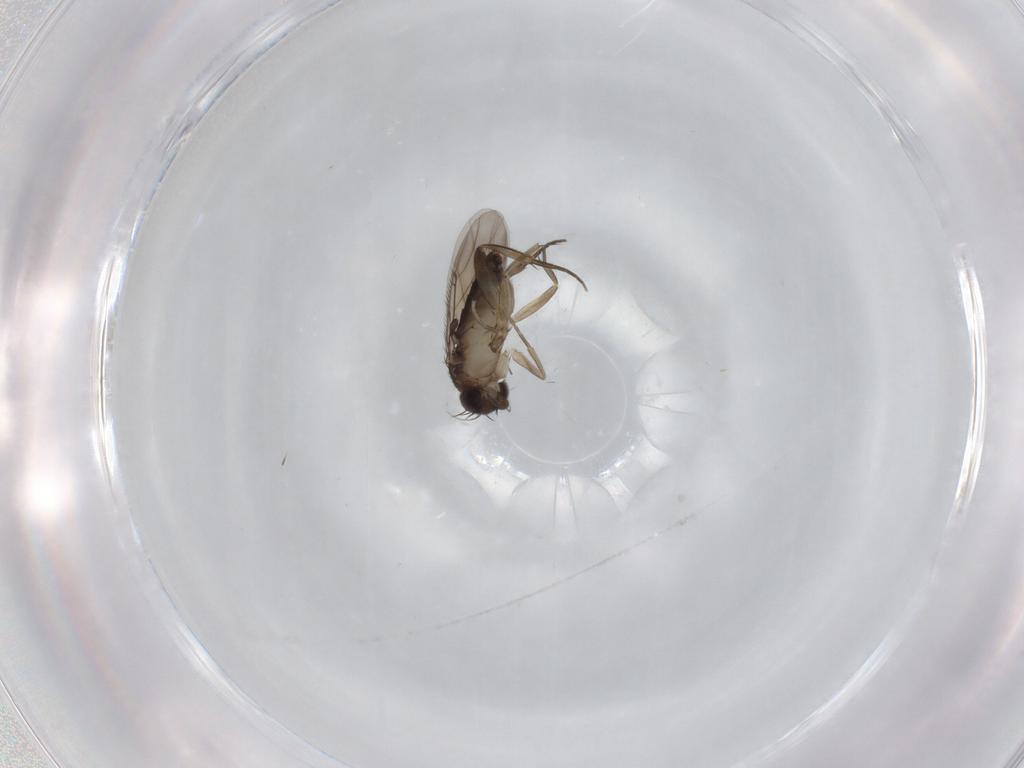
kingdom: Animalia
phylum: Arthropoda
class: Insecta
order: Diptera
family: Phoridae
